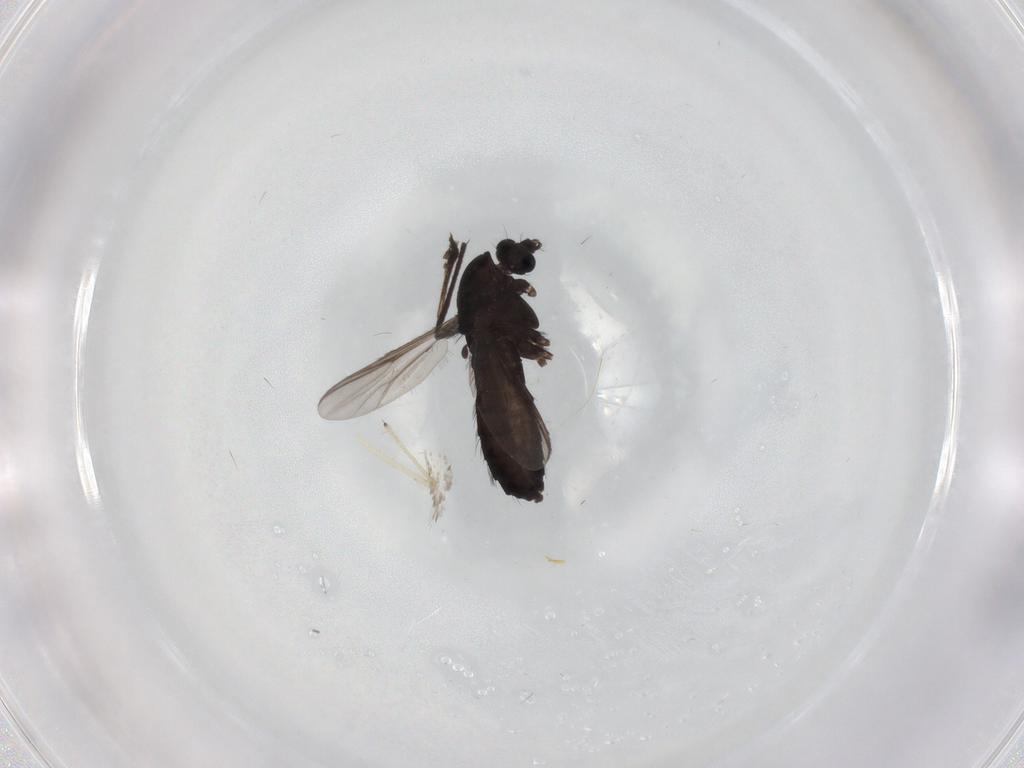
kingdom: Animalia
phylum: Arthropoda
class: Insecta
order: Diptera
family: Chironomidae
